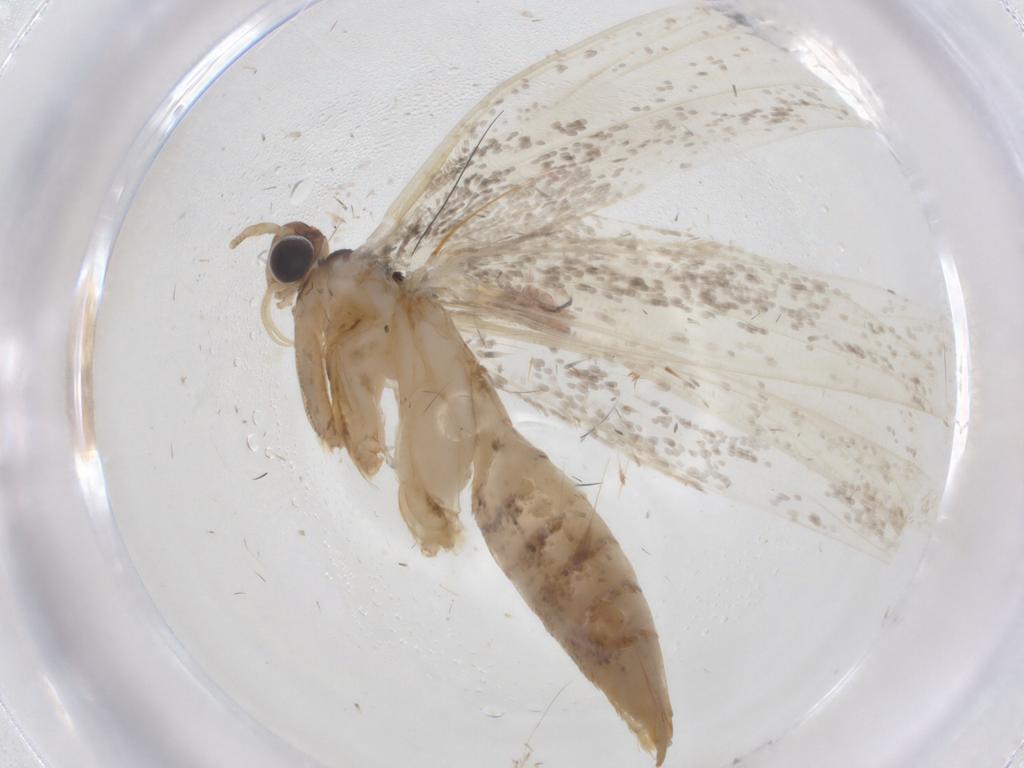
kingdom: Animalia
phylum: Arthropoda
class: Insecta
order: Lepidoptera
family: Tineidae
